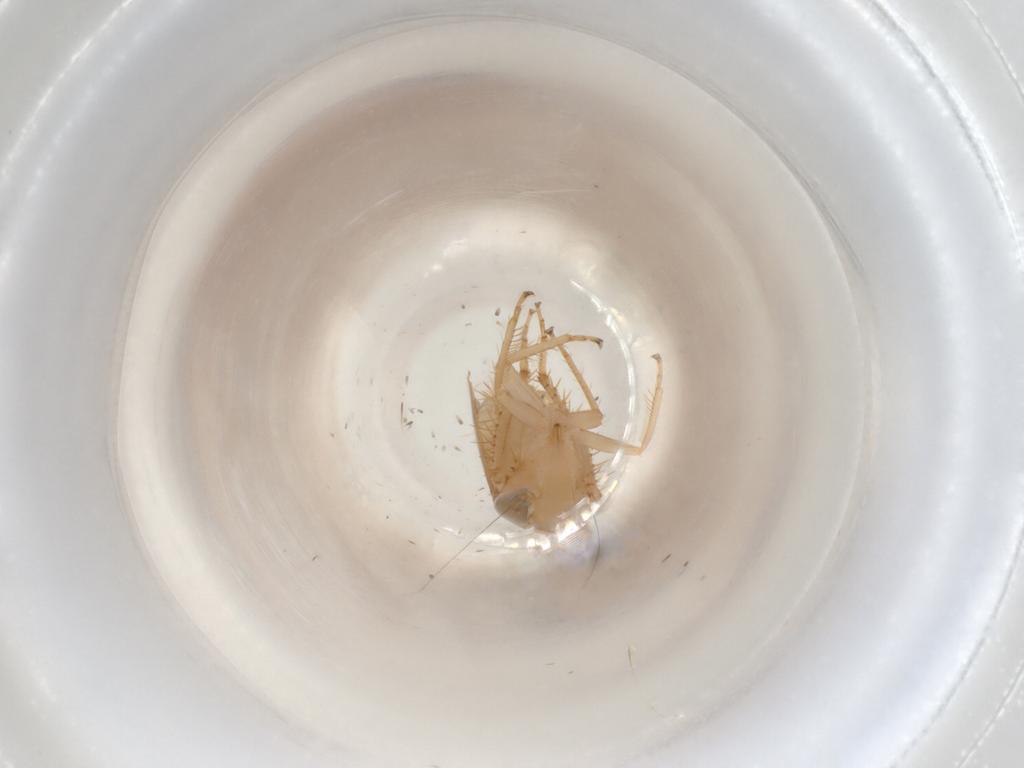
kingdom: Animalia
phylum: Arthropoda
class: Insecta
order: Hemiptera
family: Cicadellidae
